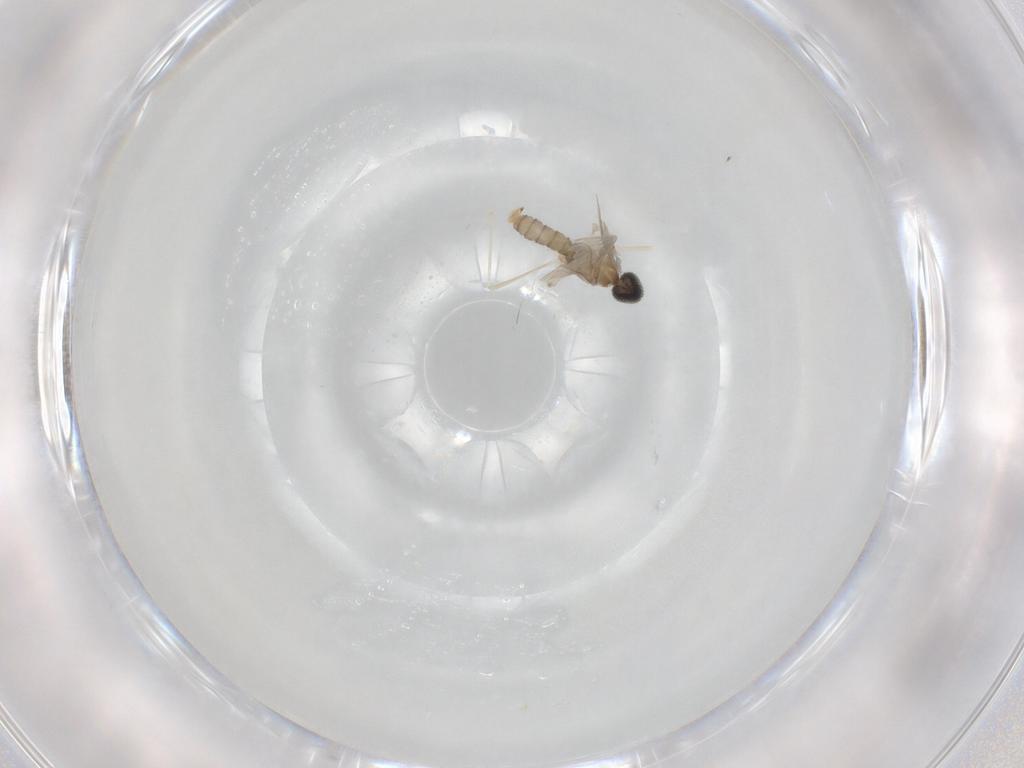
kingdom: Animalia
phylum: Arthropoda
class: Insecta
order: Diptera
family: Cecidomyiidae
